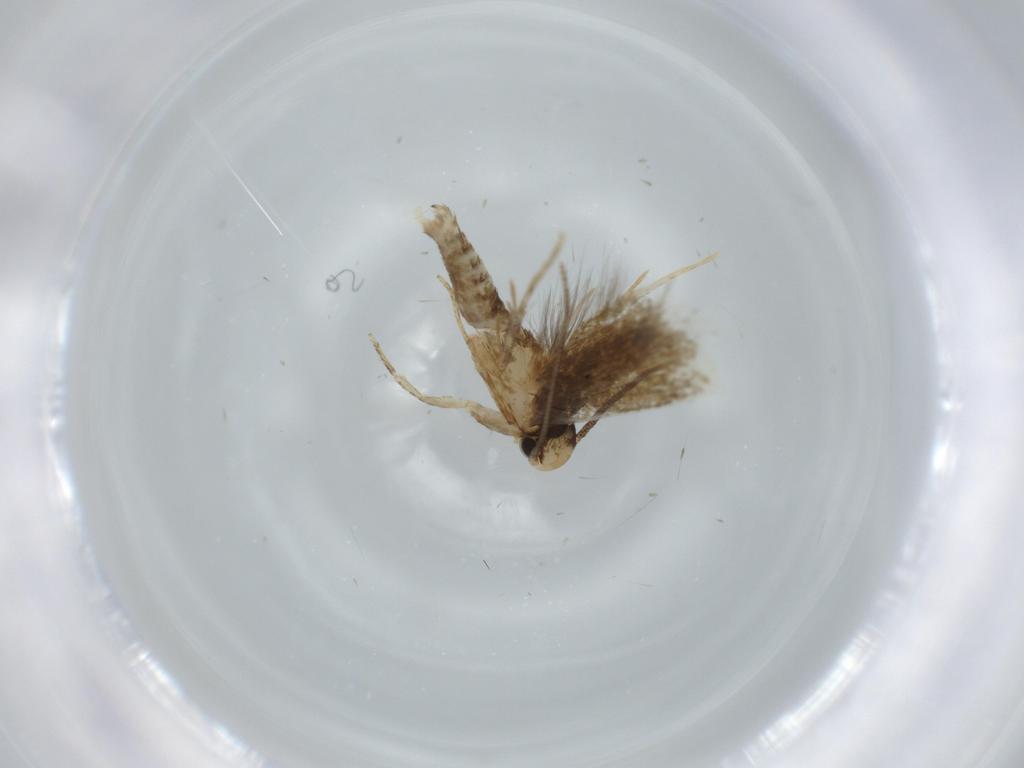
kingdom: Animalia
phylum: Arthropoda
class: Insecta
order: Lepidoptera
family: Tineidae
